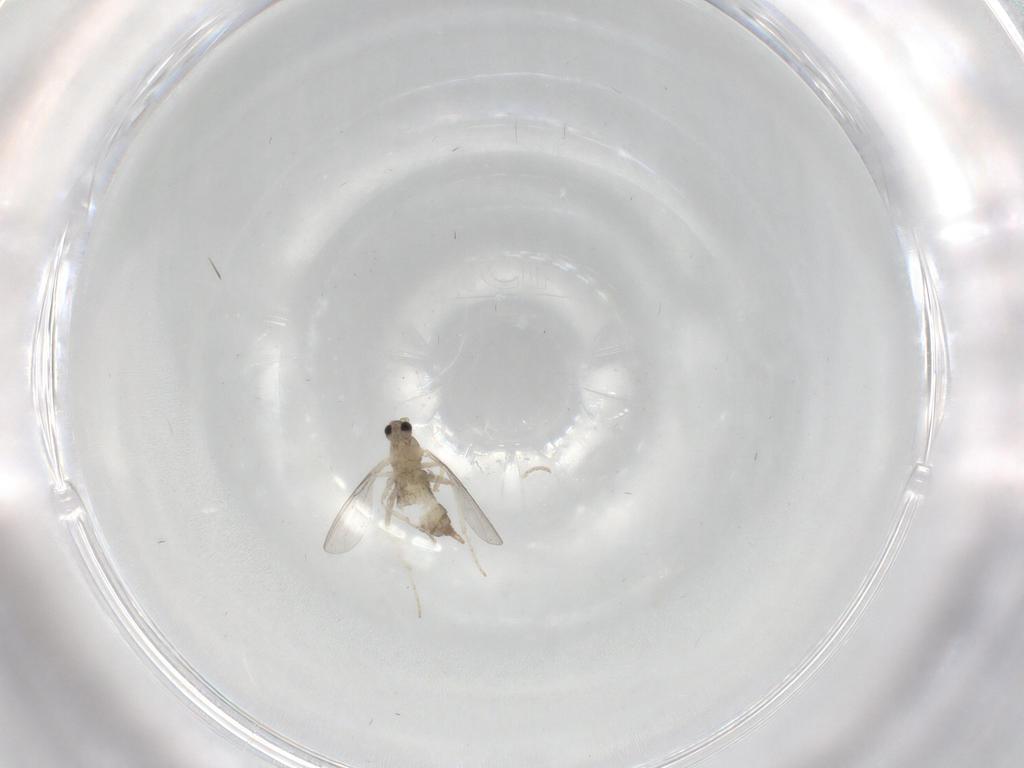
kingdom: Animalia
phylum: Arthropoda
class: Insecta
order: Diptera
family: Cecidomyiidae
